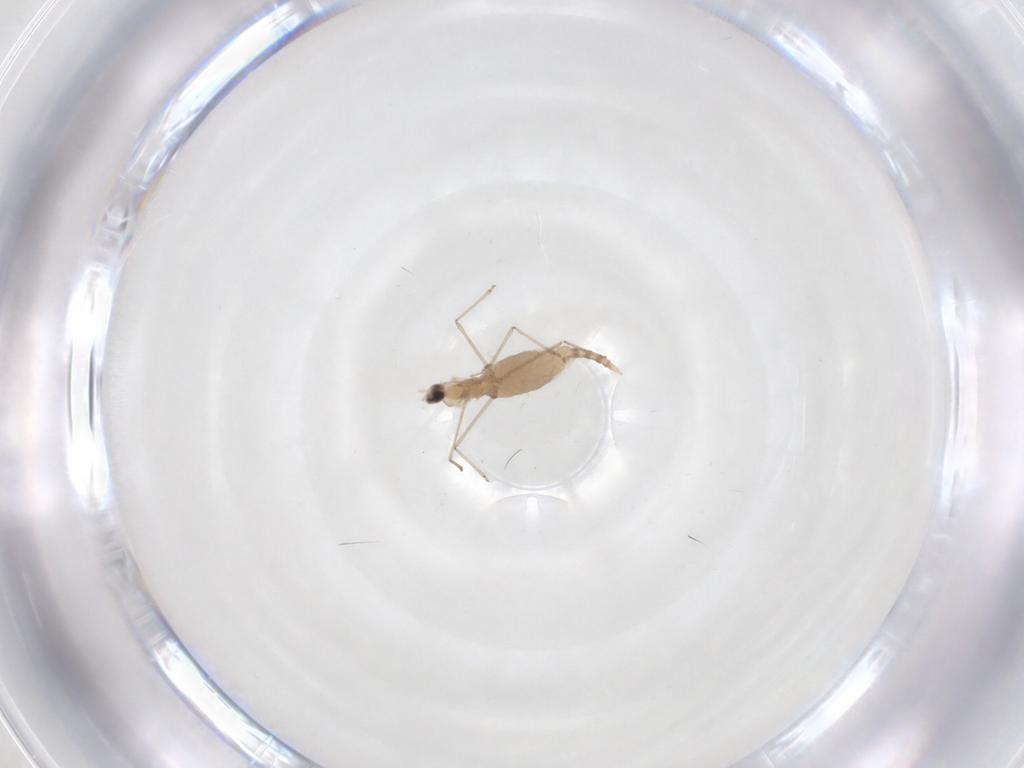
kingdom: Animalia
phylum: Arthropoda
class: Insecta
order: Diptera
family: Cecidomyiidae
